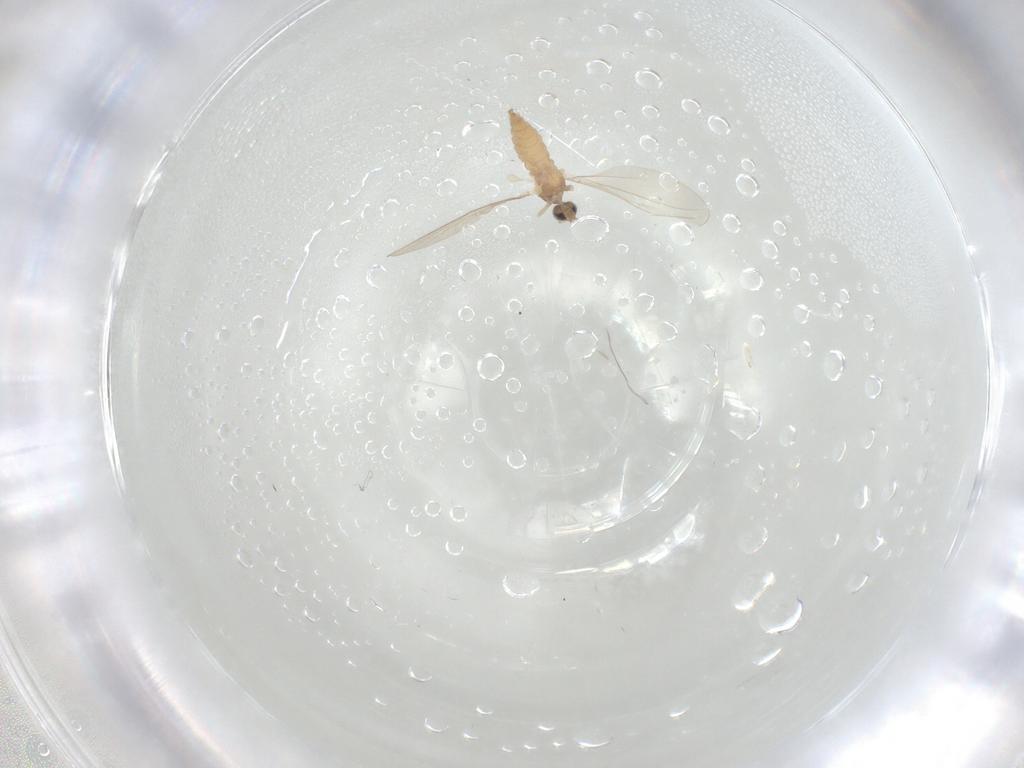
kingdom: Animalia
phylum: Arthropoda
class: Insecta
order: Diptera
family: Cecidomyiidae
